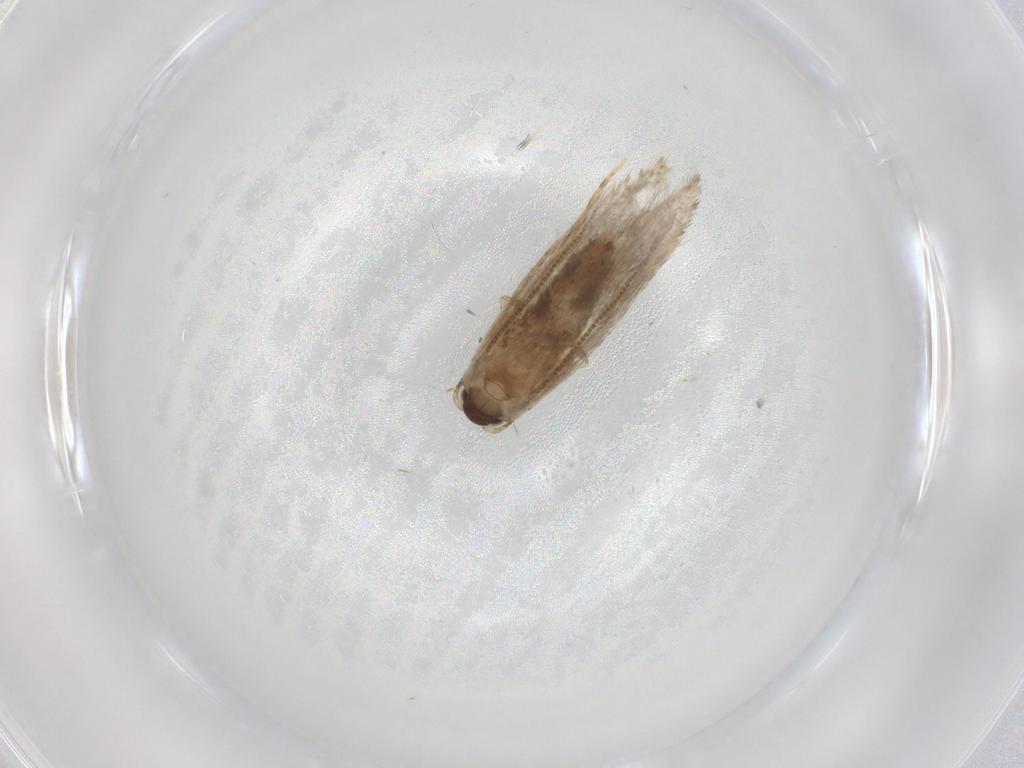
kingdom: Animalia
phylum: Arthropoda
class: Insecta
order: Lepidoptera
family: Tineidae
